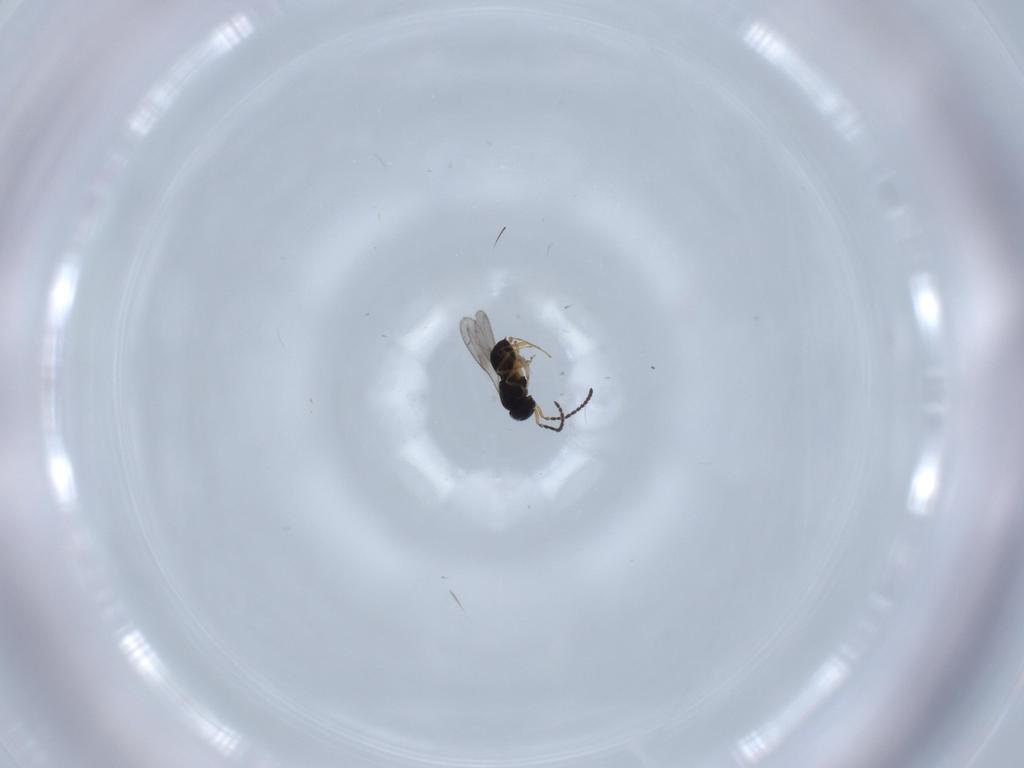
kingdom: Animalia
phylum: Arthropoda
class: Insecta
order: Hymenoptera
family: Scelionidae
